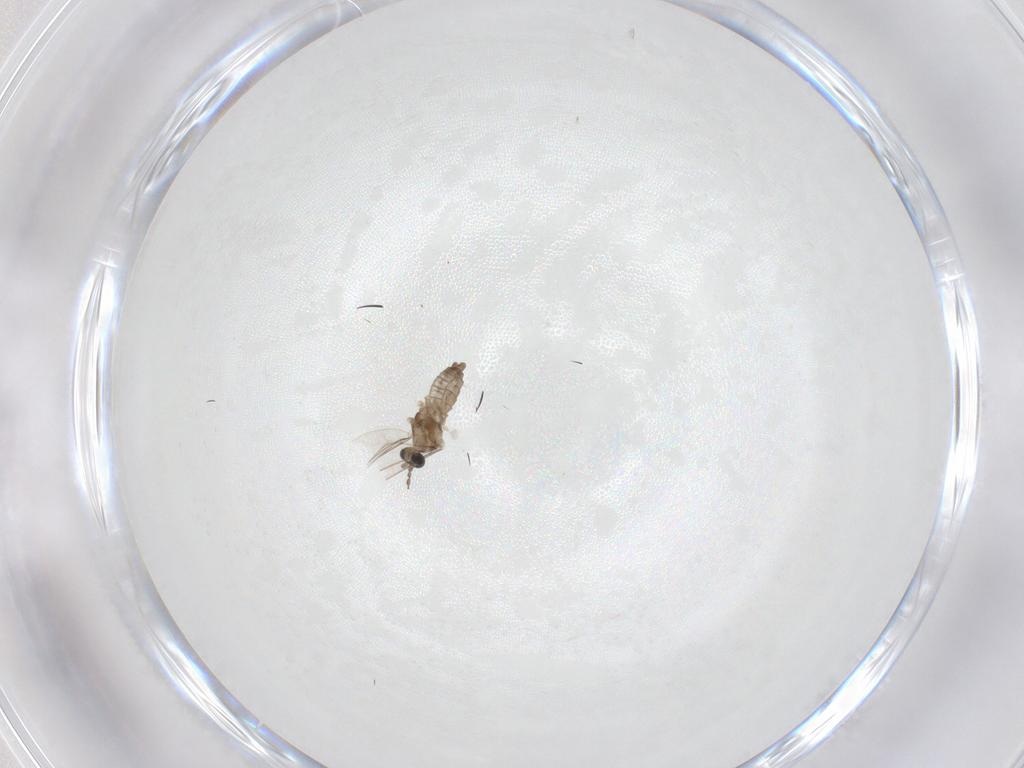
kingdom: Animalia
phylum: Arthropoda
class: Insecta
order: Diptera
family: Cecidomyiidae
